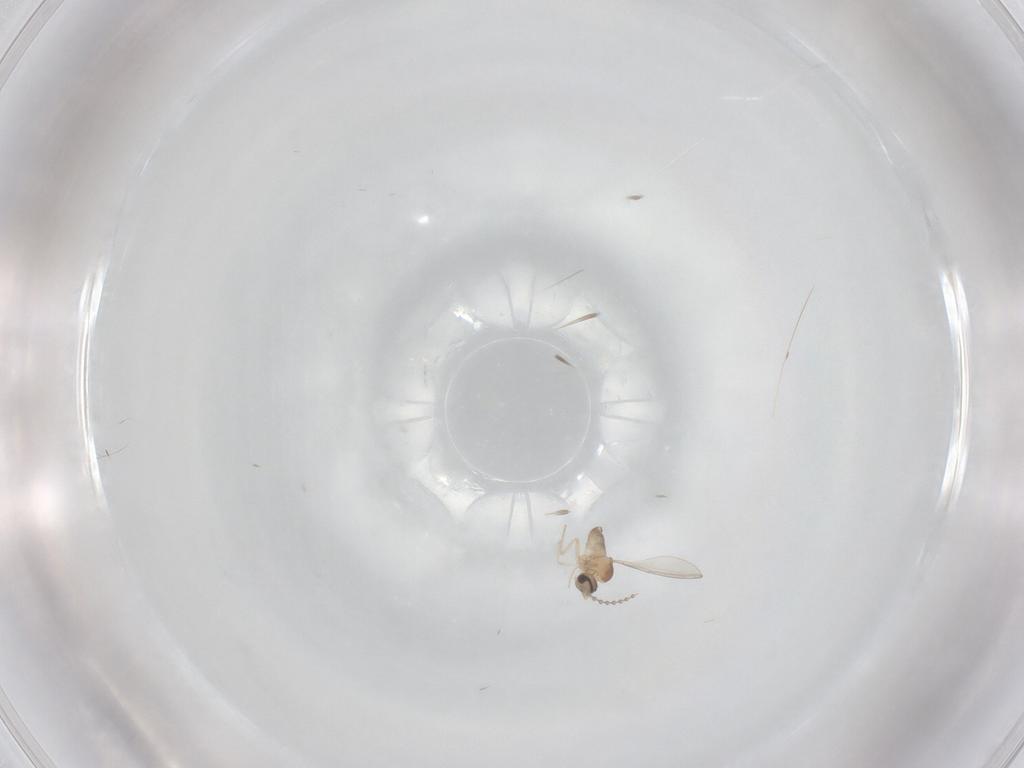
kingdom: Animalia
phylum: Arthropoda
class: Insecta
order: Diptera
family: Cecidomyiidae
